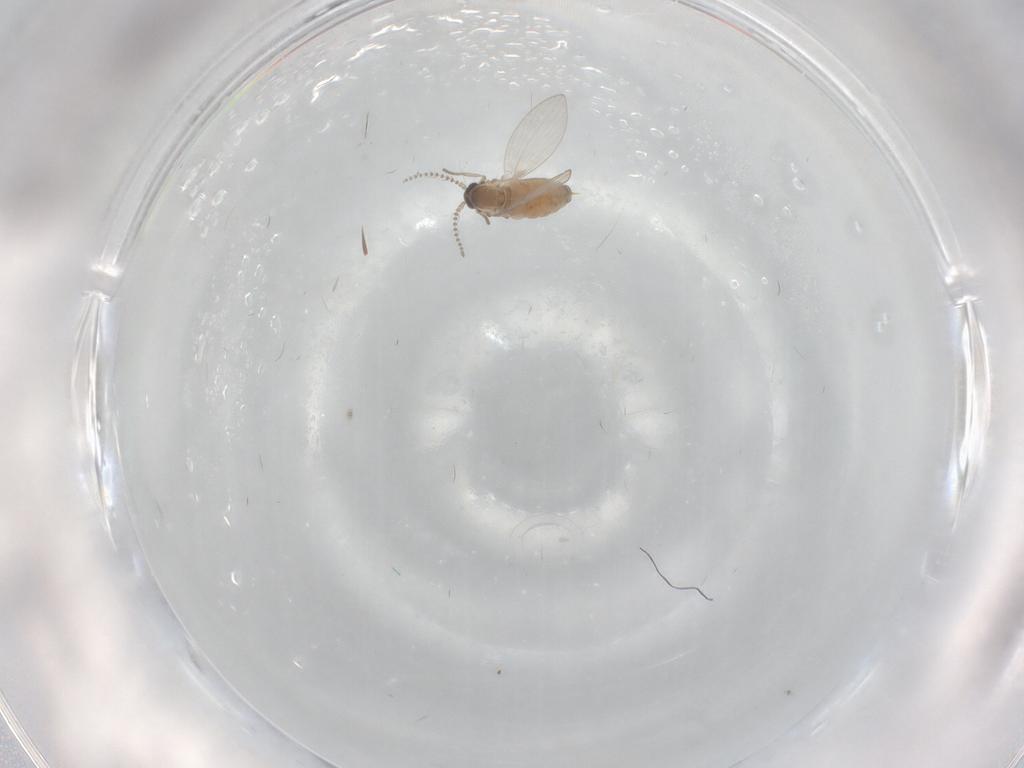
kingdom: Animalia
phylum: Arthropoda
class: Insecta
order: Diptera
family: Psychodidae
